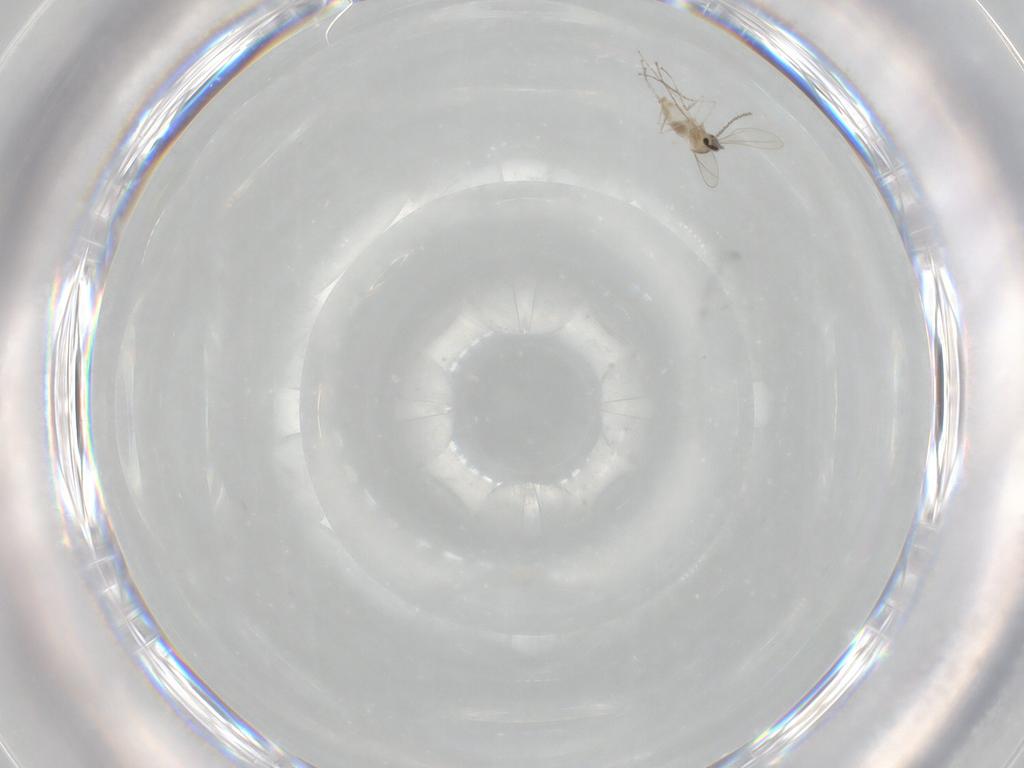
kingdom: Animalia
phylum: Arthropoda
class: Insecta
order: Diptera
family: Cecidomyiidae
